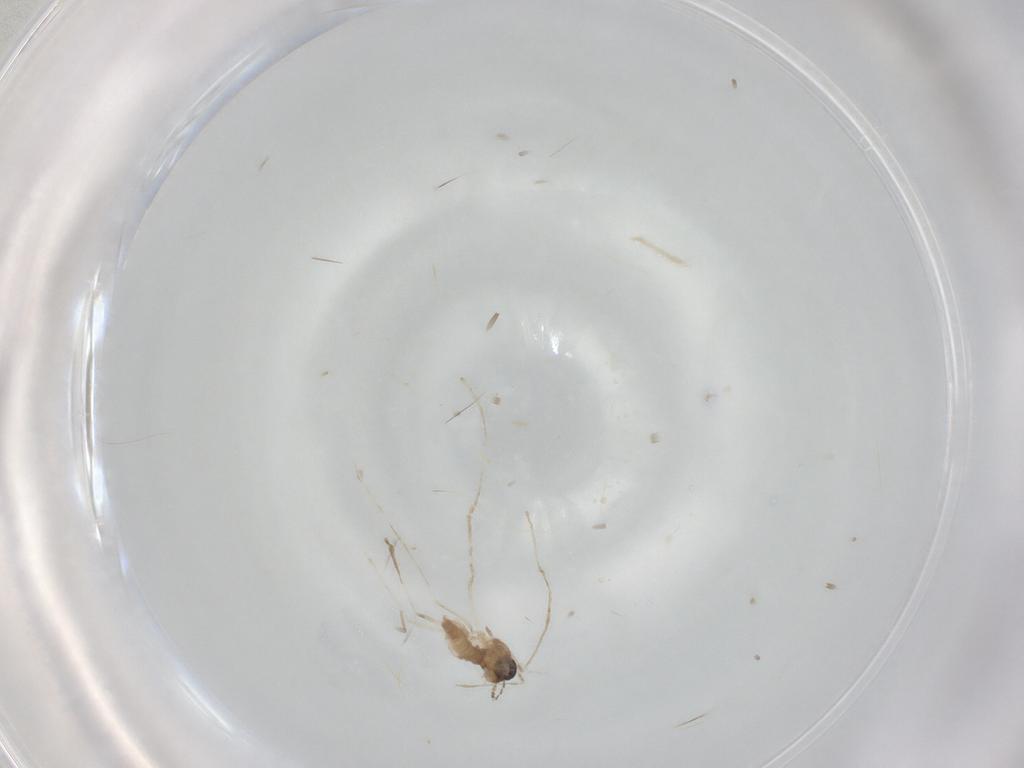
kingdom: Animalia
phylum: Arthropoda
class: Insecta
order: Diptera
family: Cecidomyiidae
